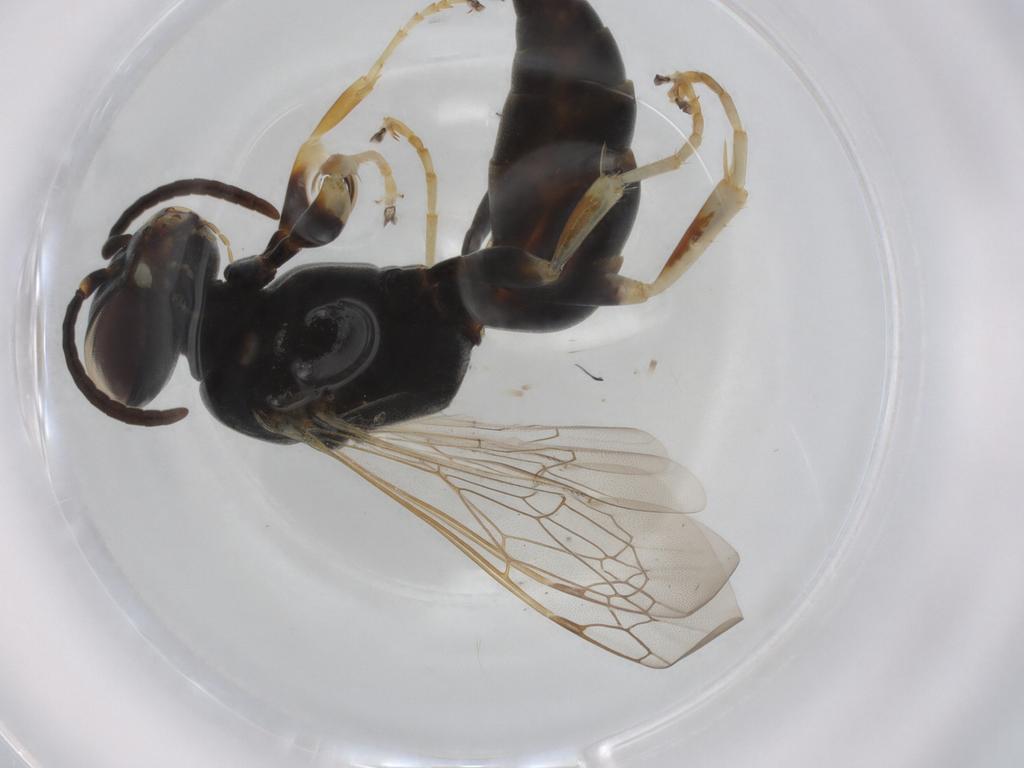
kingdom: Animalia
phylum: Arthropoda
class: Insecta
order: Hymenoptera
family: Crabronidae
